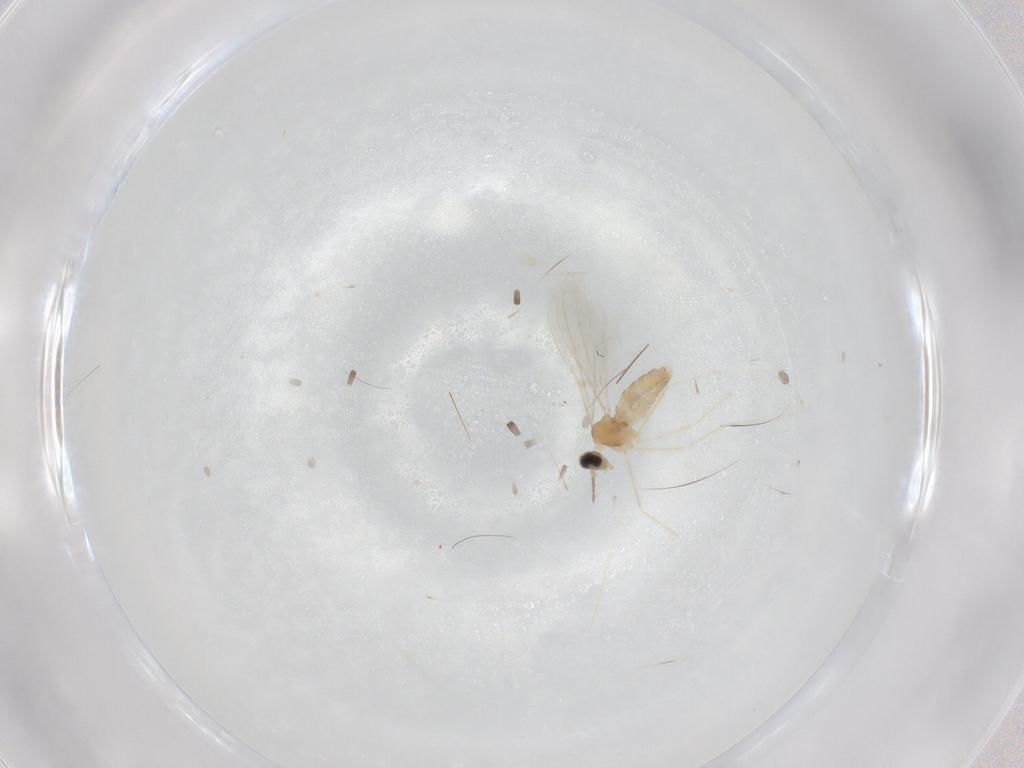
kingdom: Animalia
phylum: Arthropoda
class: Insecta
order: Diptera
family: Cecidomyiidae
